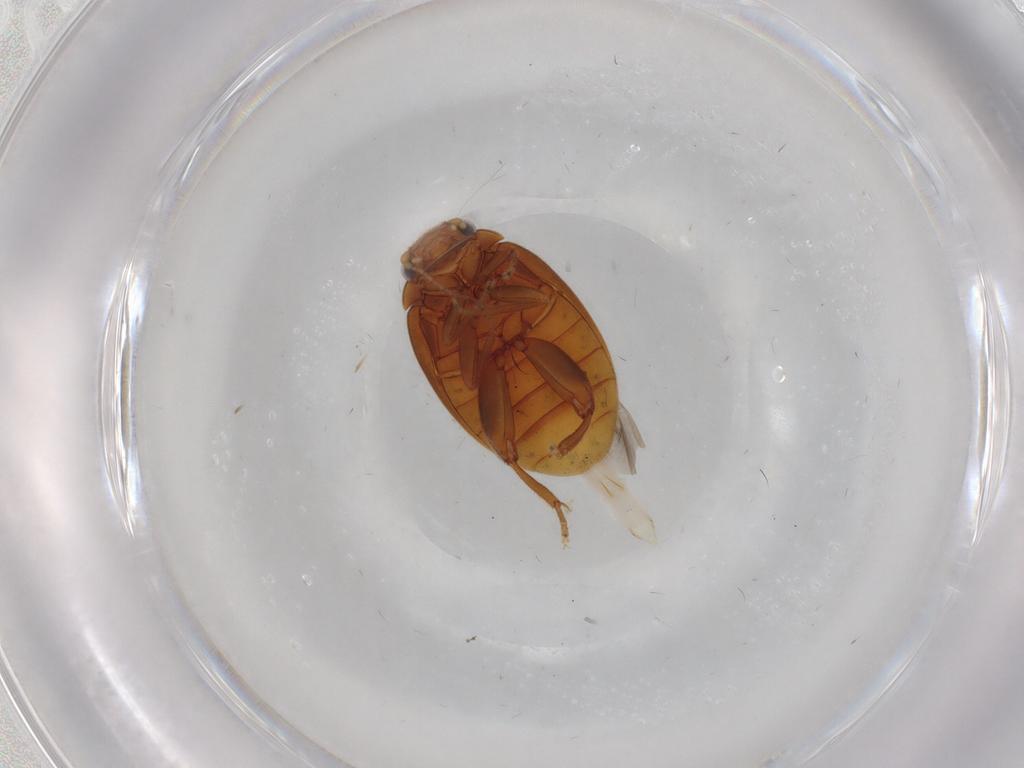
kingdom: Animalia
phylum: Arthropoda
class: Insecta
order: Coleoptera
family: Scirtidae
